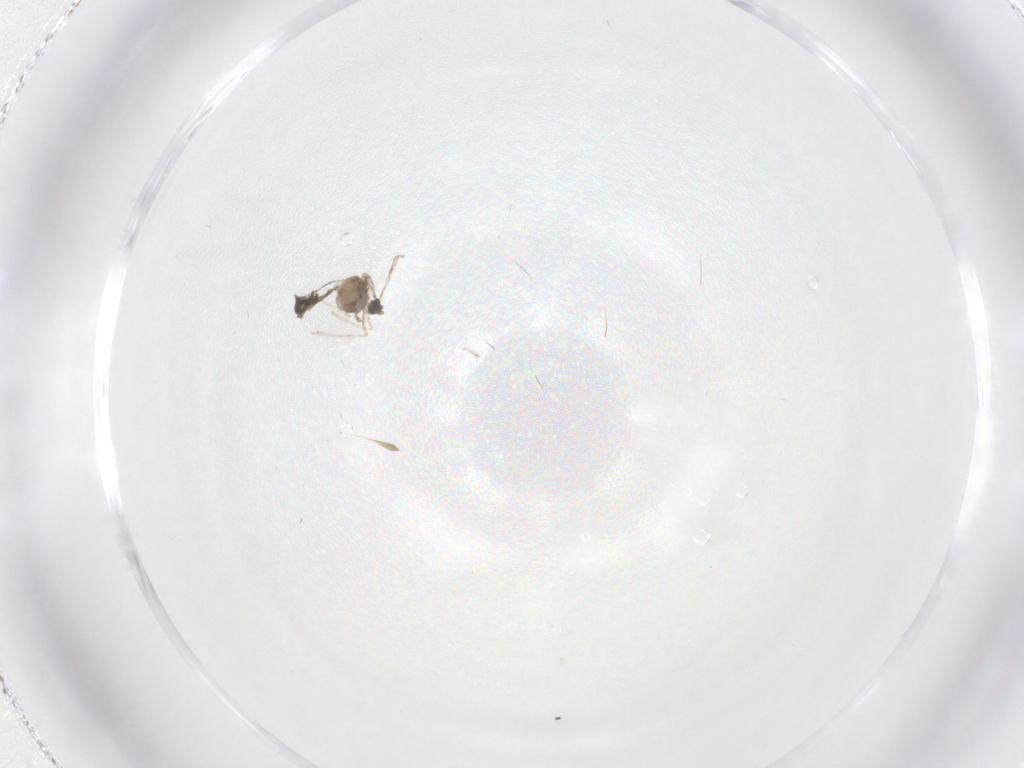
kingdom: Animalia
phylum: Arthropoda
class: Insecta
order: Diptera
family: Cecidomyiidae
